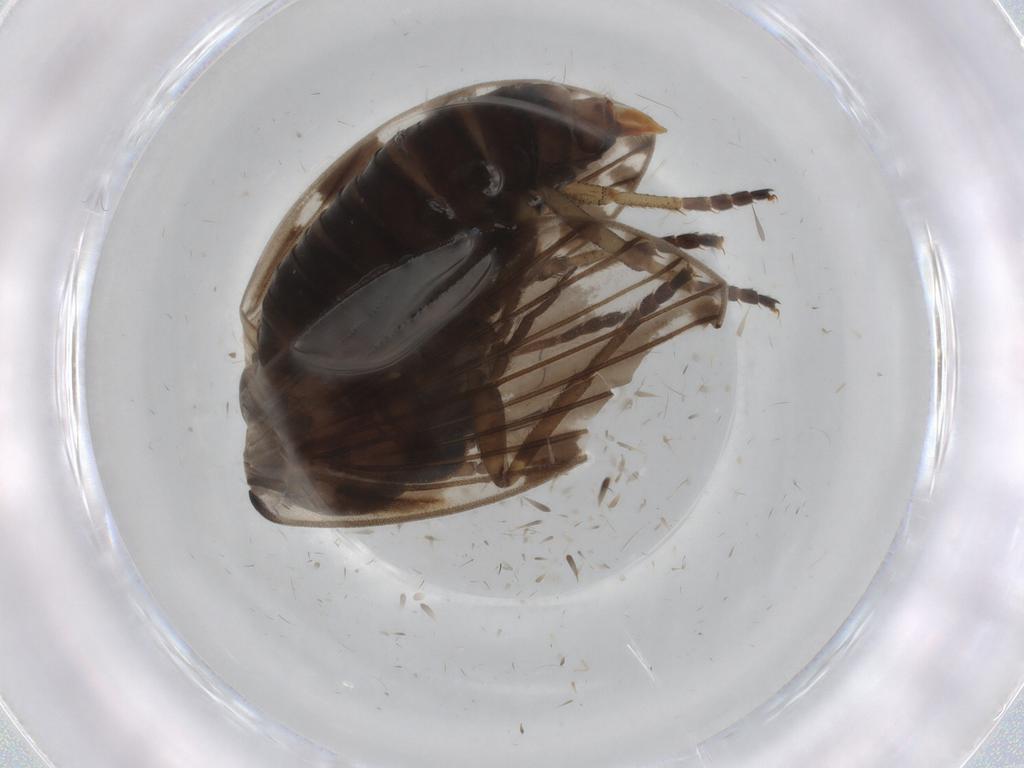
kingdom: Animalia
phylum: Arthropoda
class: Insecta
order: Diptera
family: Psychodidae
